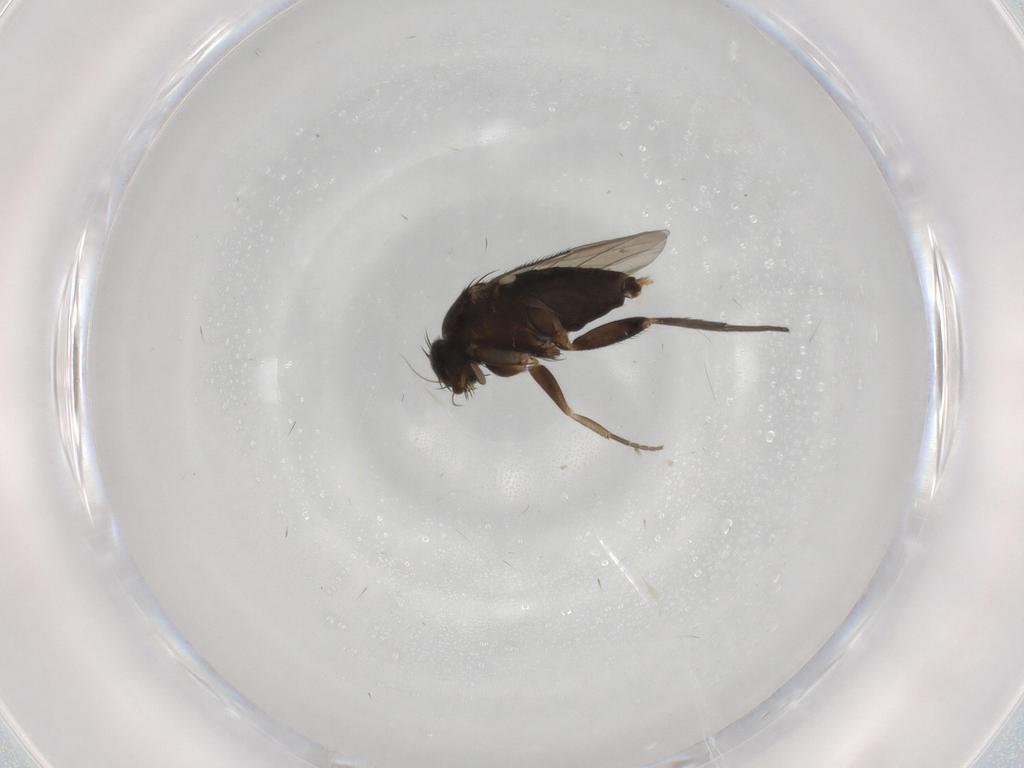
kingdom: Animalia
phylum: Arthropoda
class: Insecta
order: Diptera
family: Phoridae
